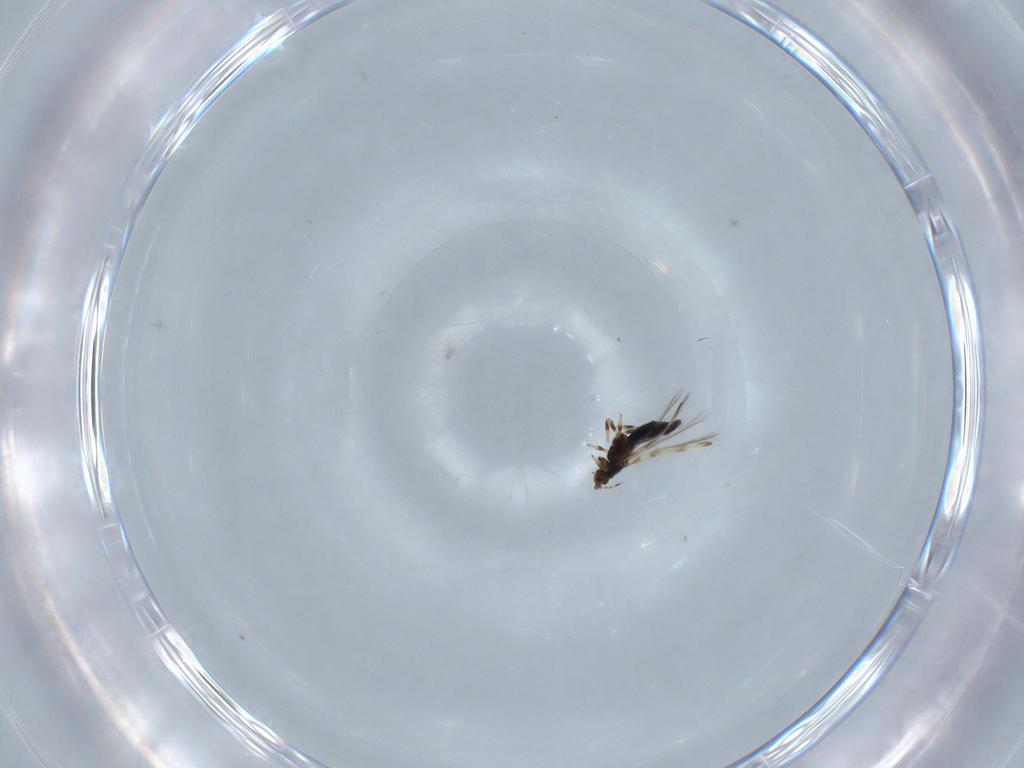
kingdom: Animalia
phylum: Arthropoda
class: Insecta
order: Thysanoptera
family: Thripidae
